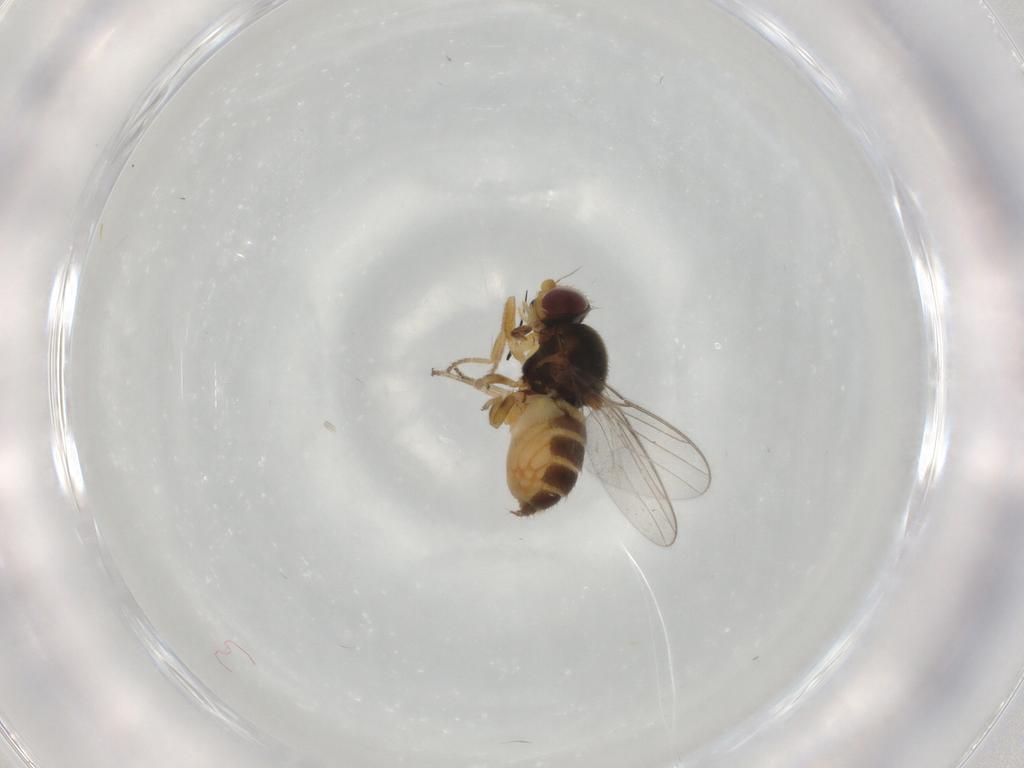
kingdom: Animalia
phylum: Arthropoda
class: Insecta
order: Diptera
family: Chloropidae
